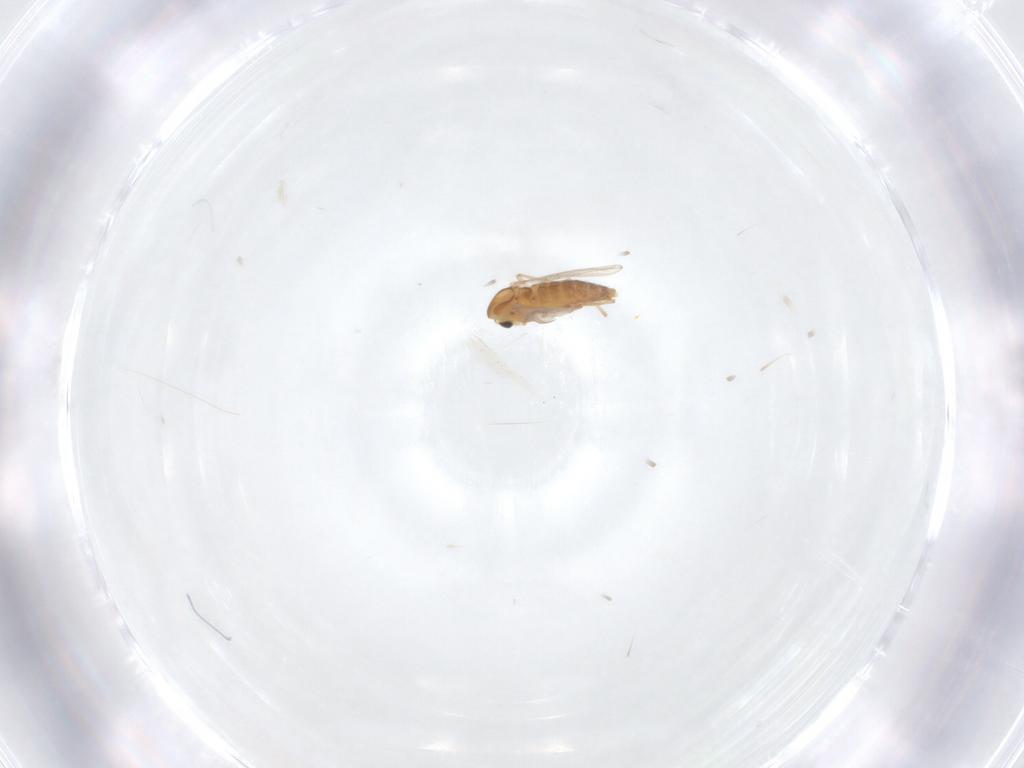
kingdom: Animalia
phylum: Arthropoda
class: Insecta
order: Diptera
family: Chironomidae
